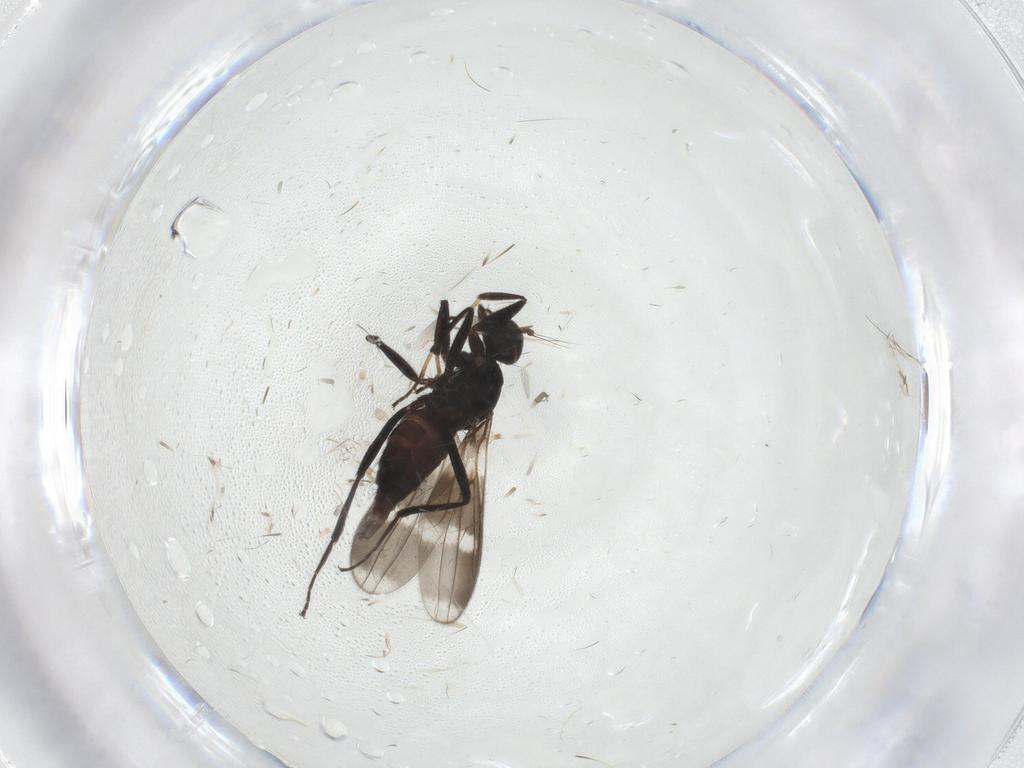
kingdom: Animalia
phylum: Arthropoda
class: Insecta
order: Diptera
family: Hybotidae
